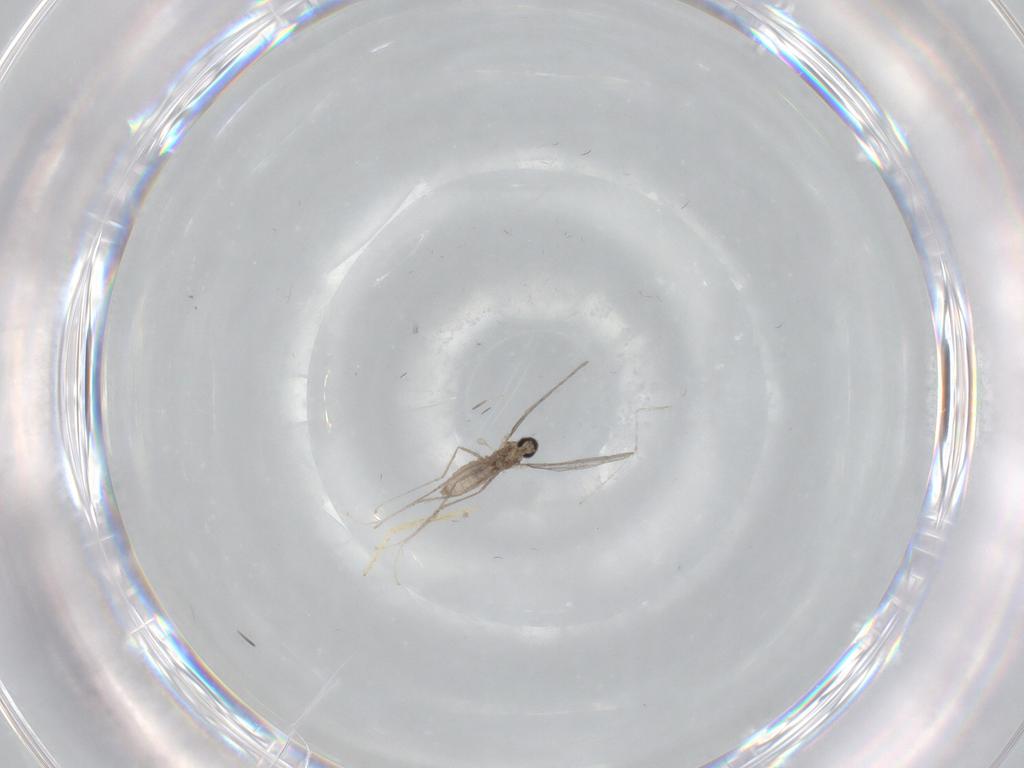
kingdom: Animalia
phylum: Arthropoda
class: Insecta
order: Diptera
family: Chironomidae
